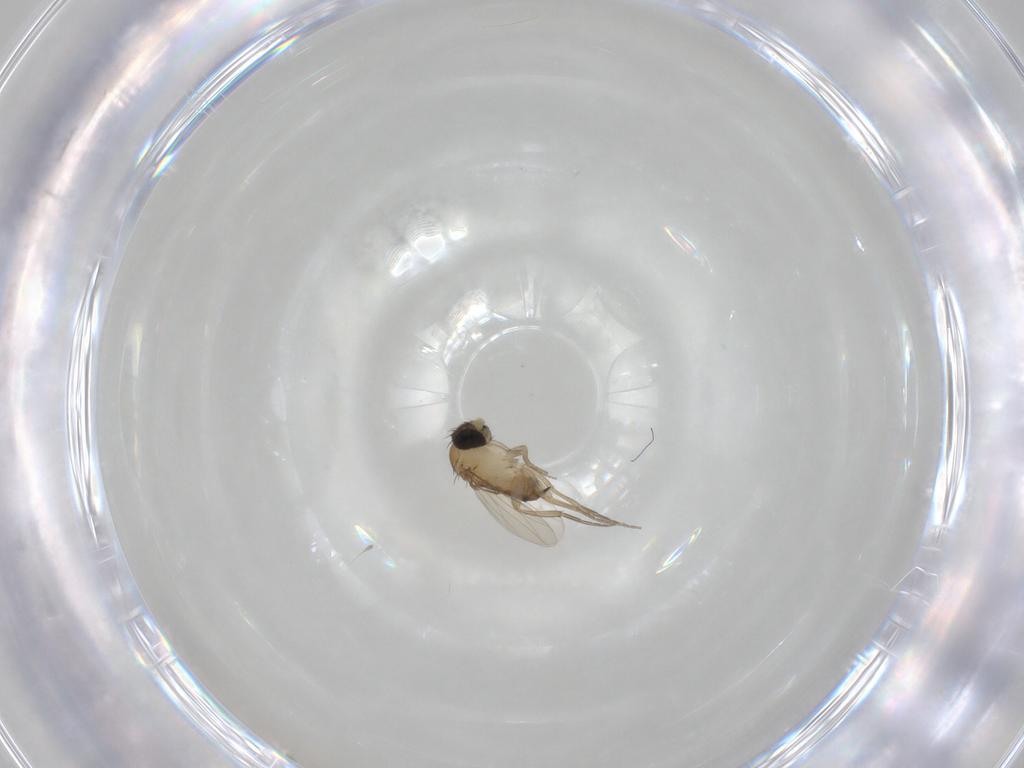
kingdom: Animalia
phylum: Arthropoda
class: Insecta
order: Diptera
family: Phoridae
